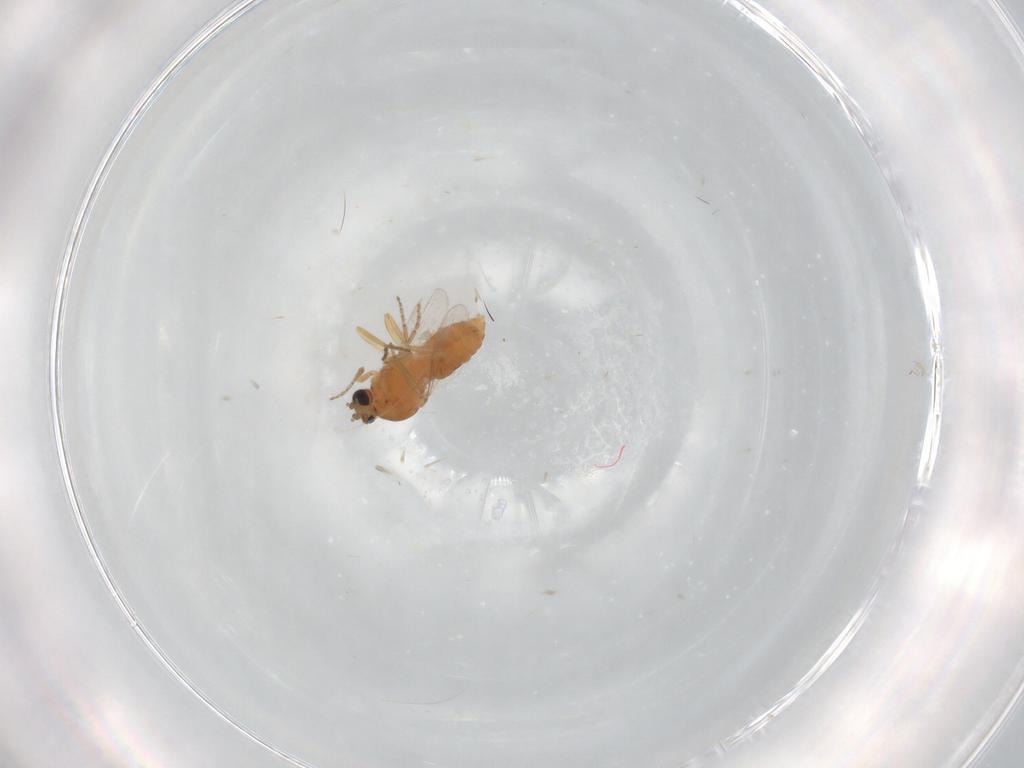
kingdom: Animalia
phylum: Arthropoda
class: Insecta
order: Diptera
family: Ceratopogonidae
